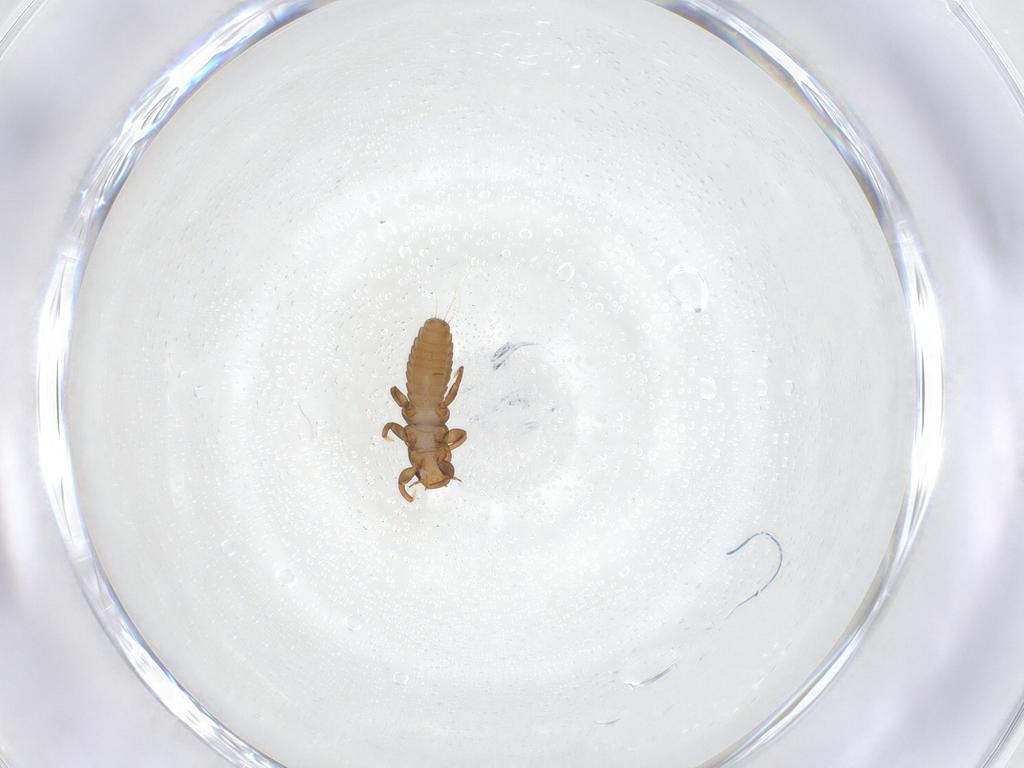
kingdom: Animalia
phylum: Arthropoda
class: Insecta
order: Coleoptera
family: Meloidae
